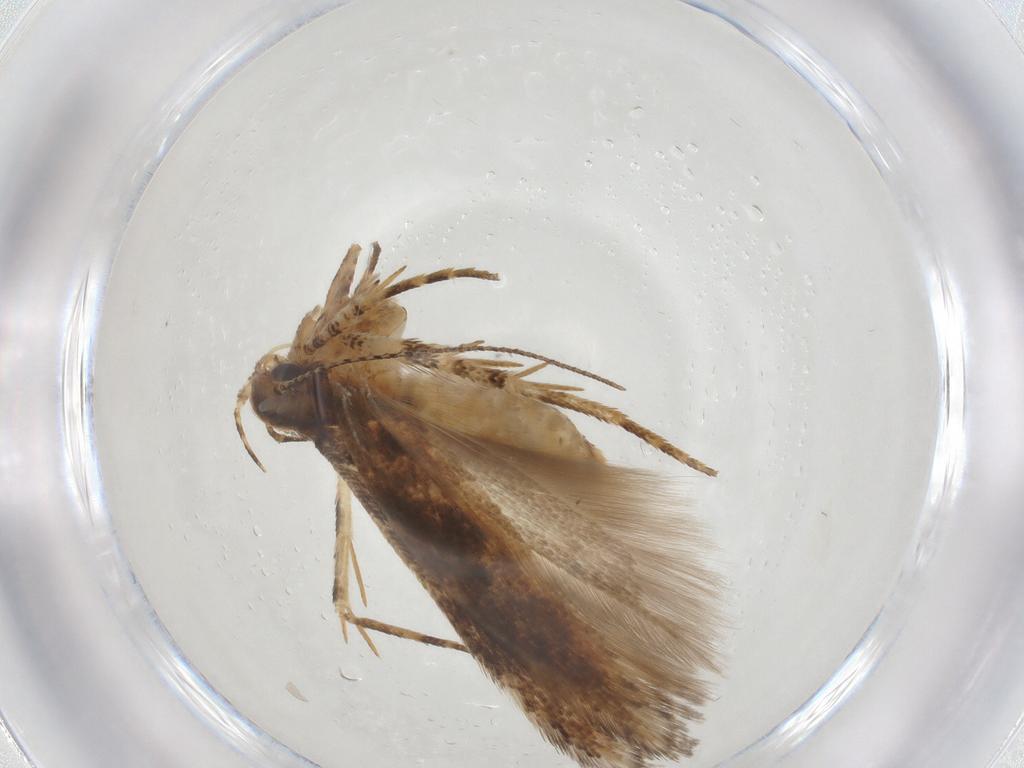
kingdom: Animalia
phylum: Arthropoda
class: Insecta
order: Lepidoptera
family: Gelechiidae
